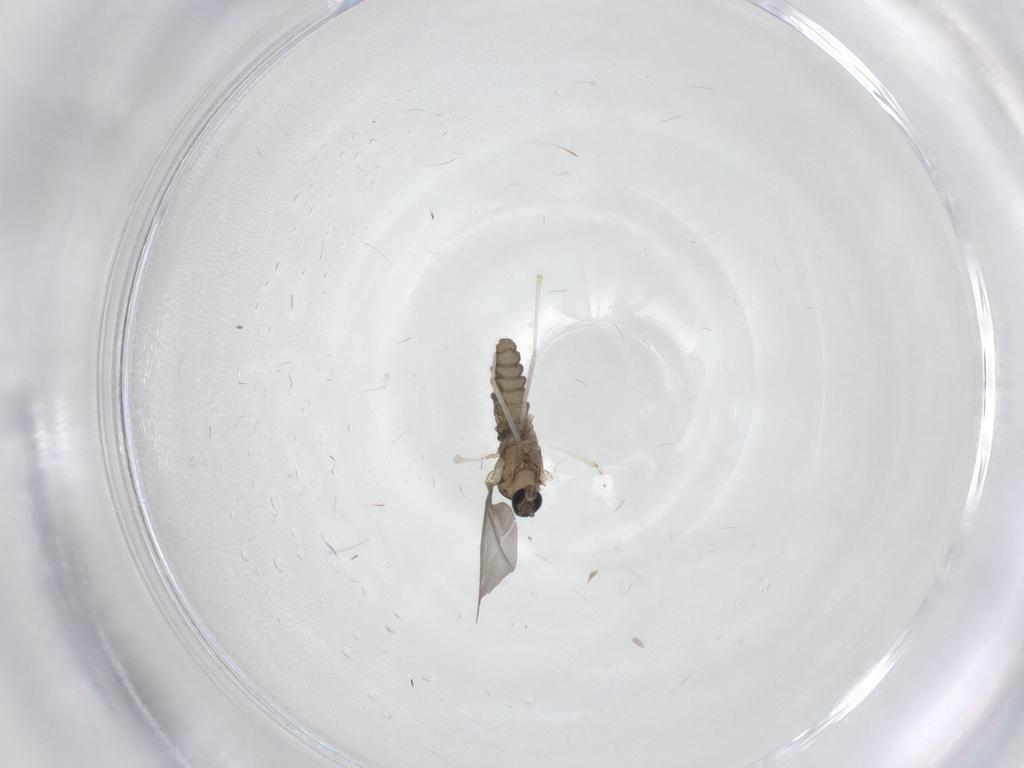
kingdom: Animalia
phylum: Arthropoda
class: Insecta
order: Diptera
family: Cecidomyiidae
